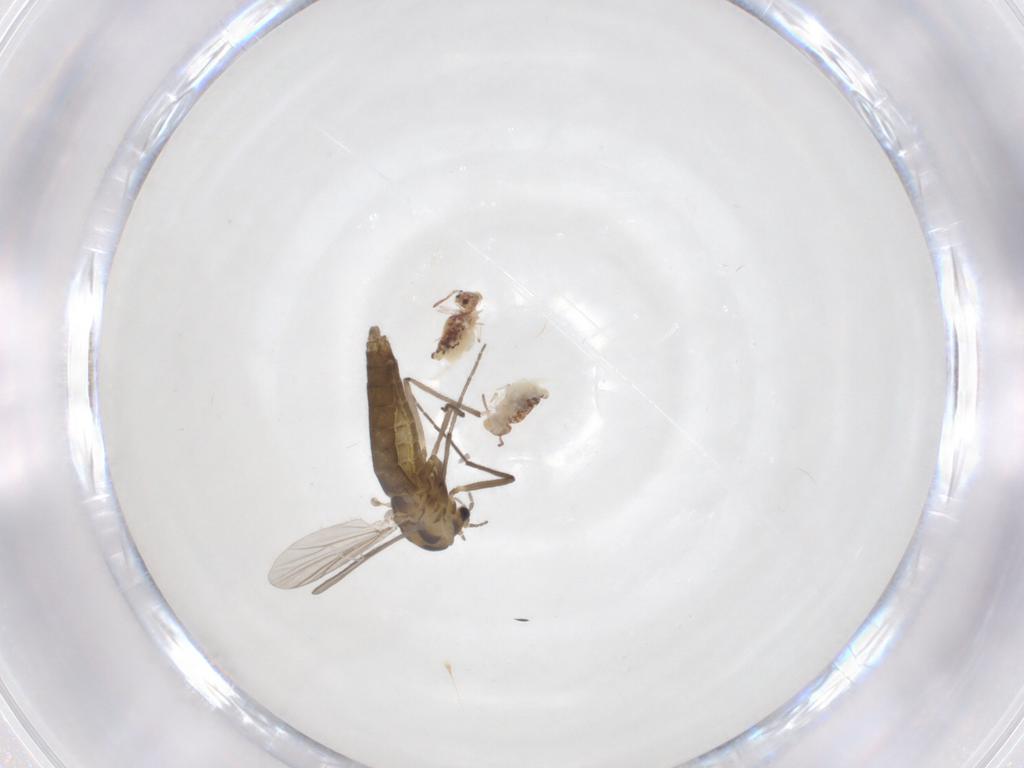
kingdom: Animalia
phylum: Arthropoda
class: Insecta
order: Diptera
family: Chironomidae
